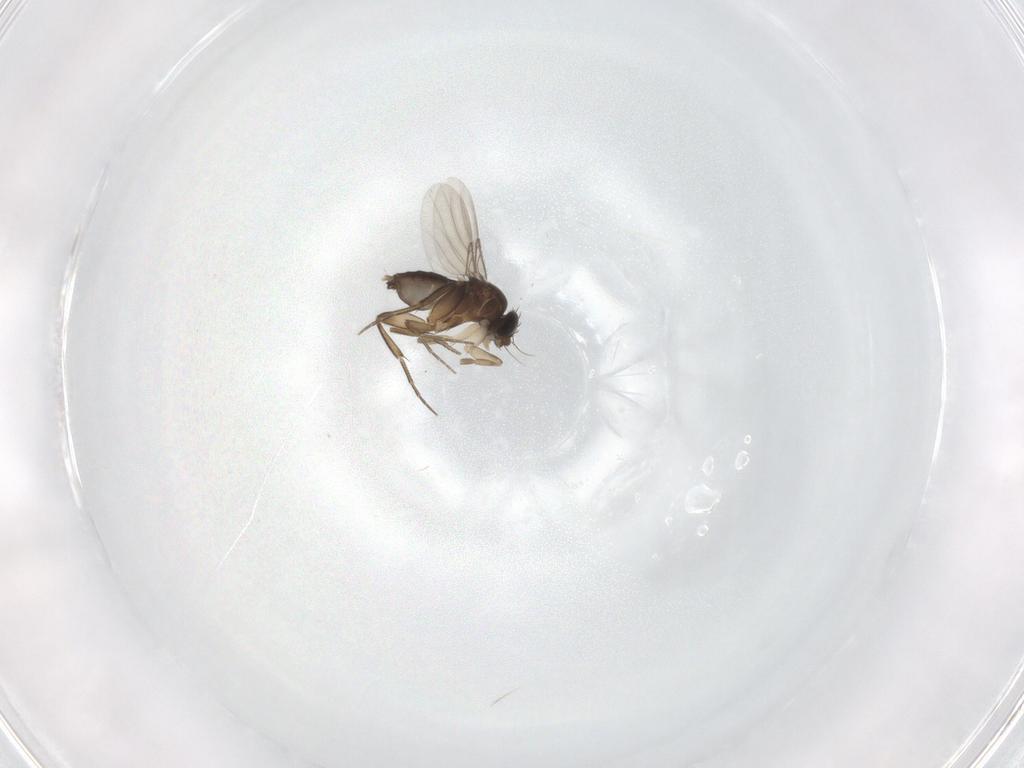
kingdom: Animalia
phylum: Arthropoda
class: Insecta
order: Diptera
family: Phoridae
